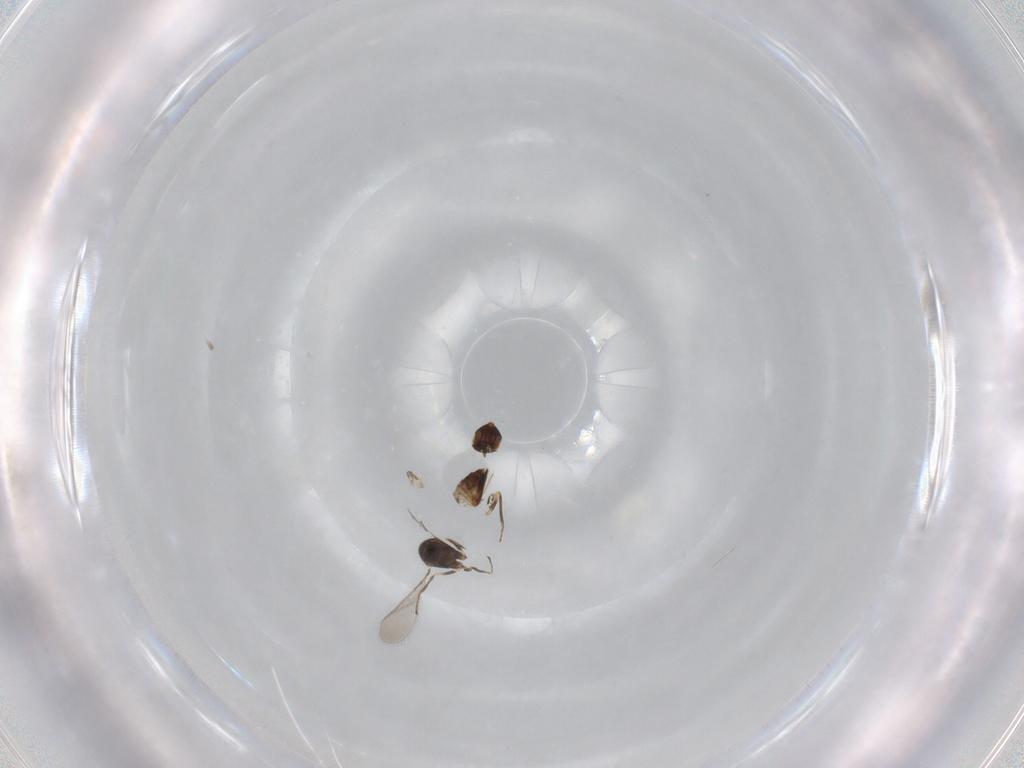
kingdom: Animalia
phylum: Arthropoda
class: Insecta
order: Hymenoptera
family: Mymaridae
